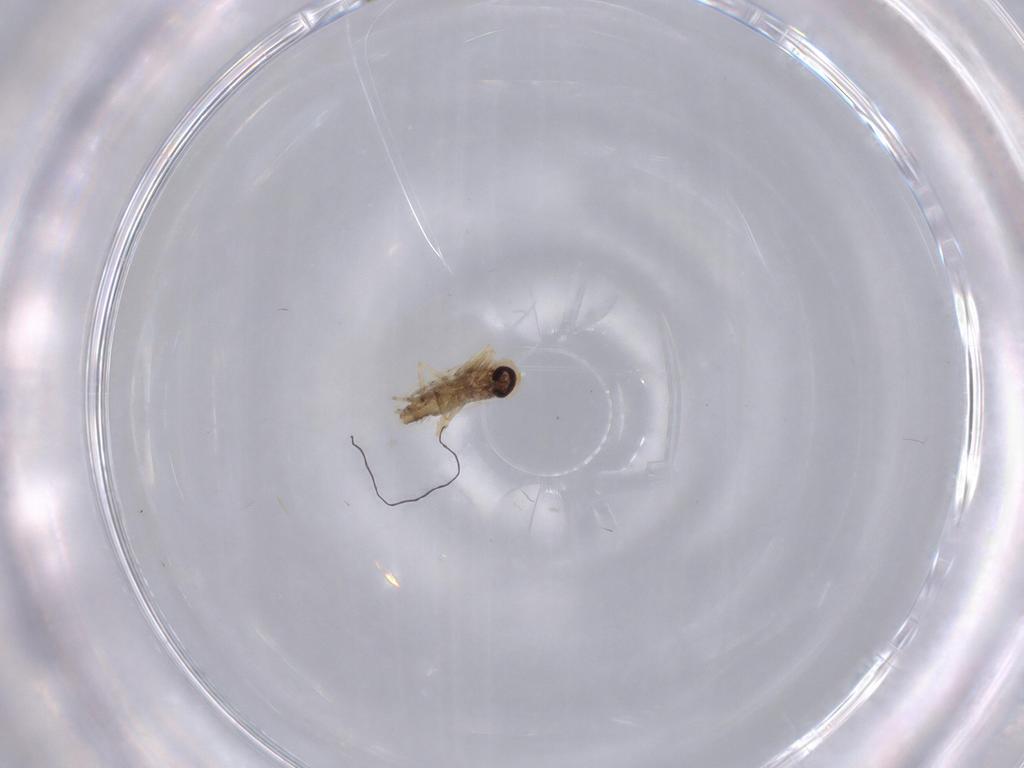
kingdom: Animalia
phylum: Arthropoda
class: Insecta
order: Diptera
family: Ceratopogonidae
